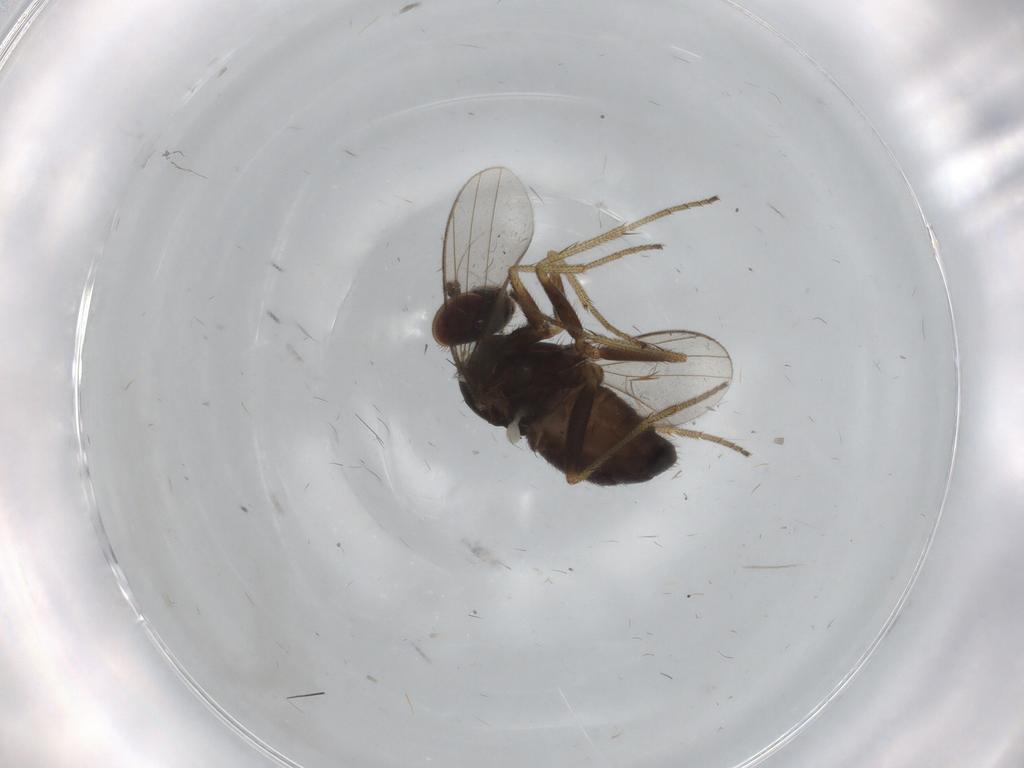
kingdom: Animalia
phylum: Arthropoda
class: Insecta
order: Diptera
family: Dolichopodidae
